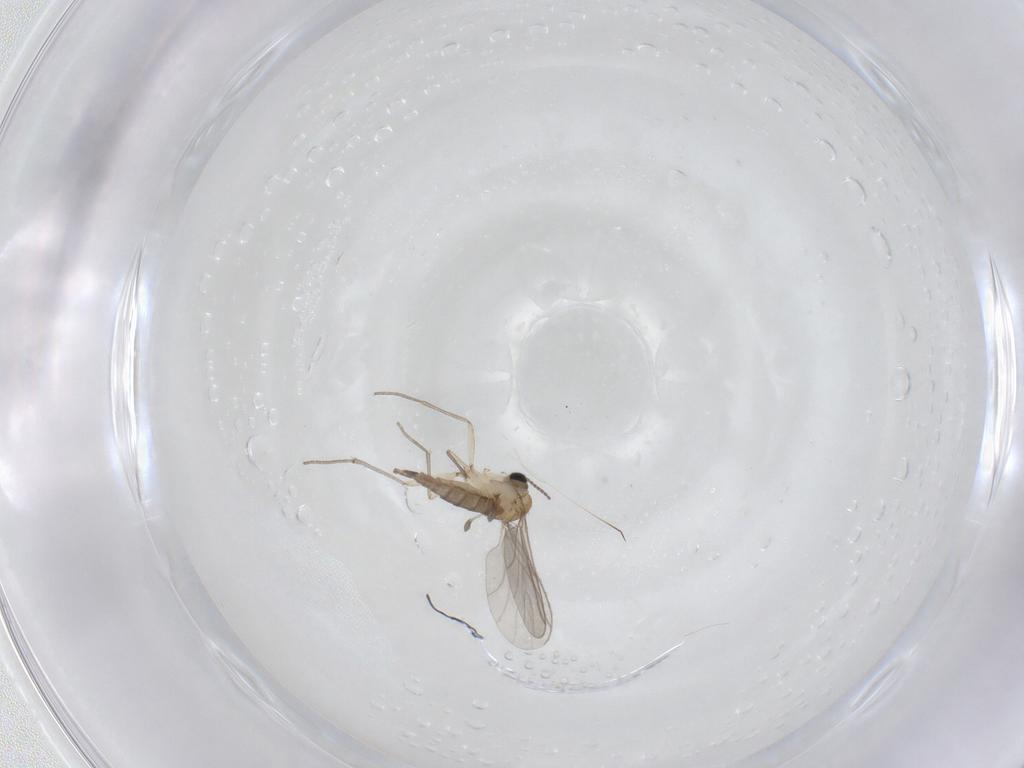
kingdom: Animalia
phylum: Arthropoda
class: Insecta
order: Diptera
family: Sciaridae
